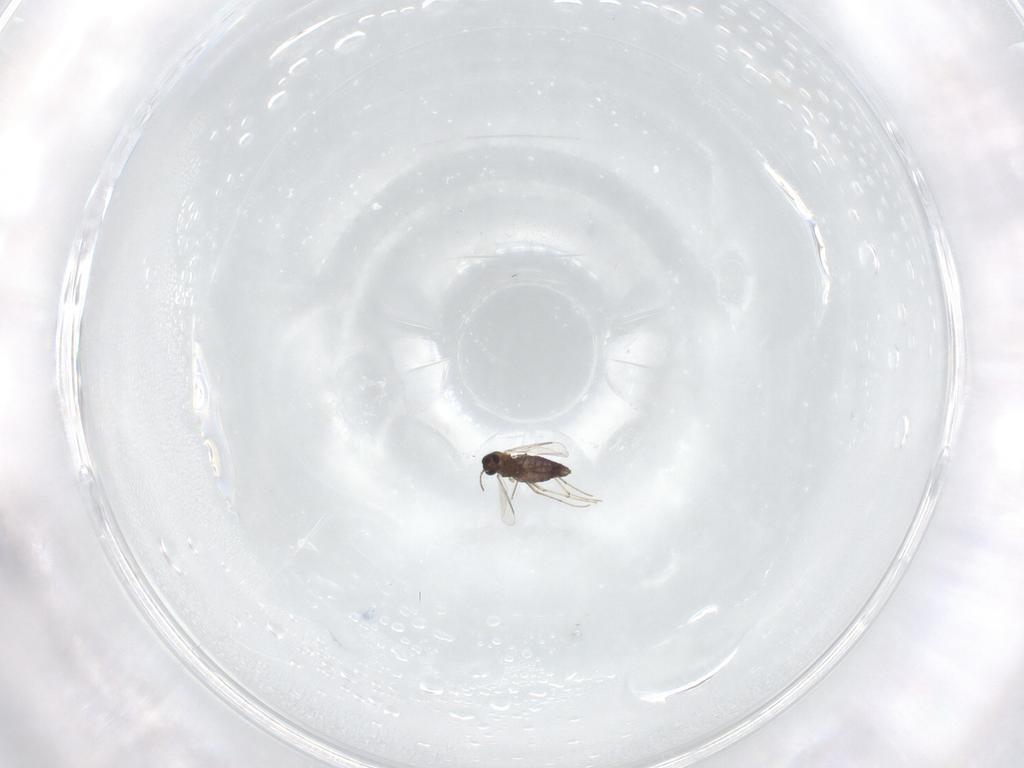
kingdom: Animalia
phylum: Arthropoda
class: Insecta
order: Diptera
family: Chironomidae
